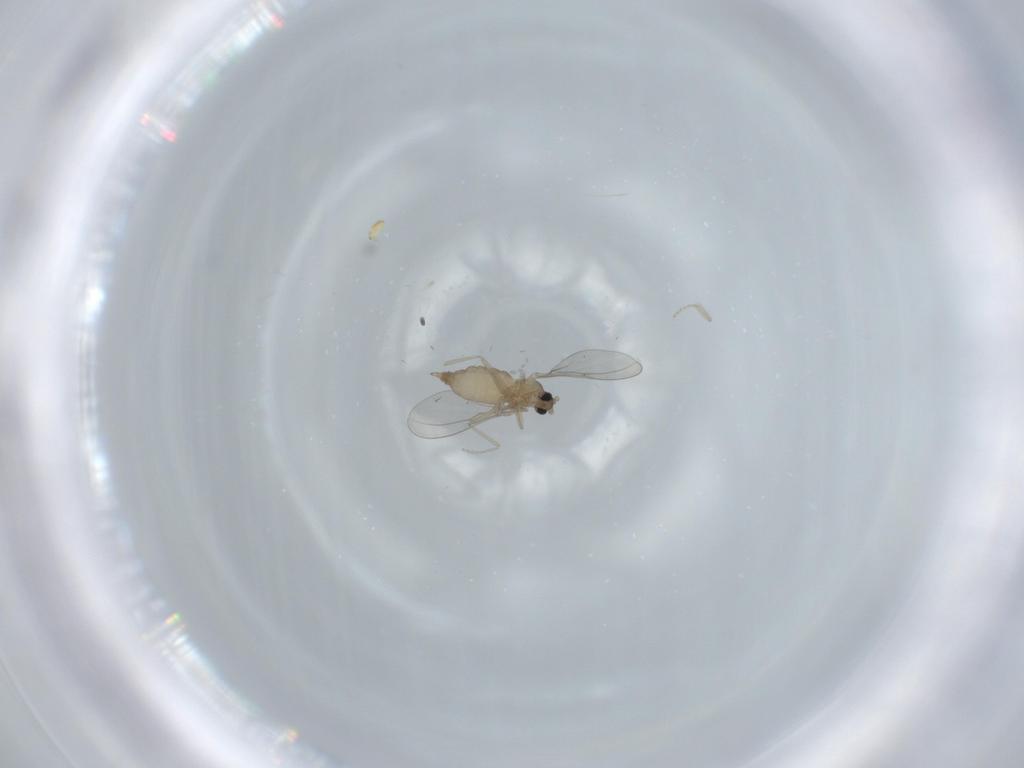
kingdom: Animalia
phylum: Arthropoda
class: Insecta
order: Diptera
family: Cecidomyiidae
